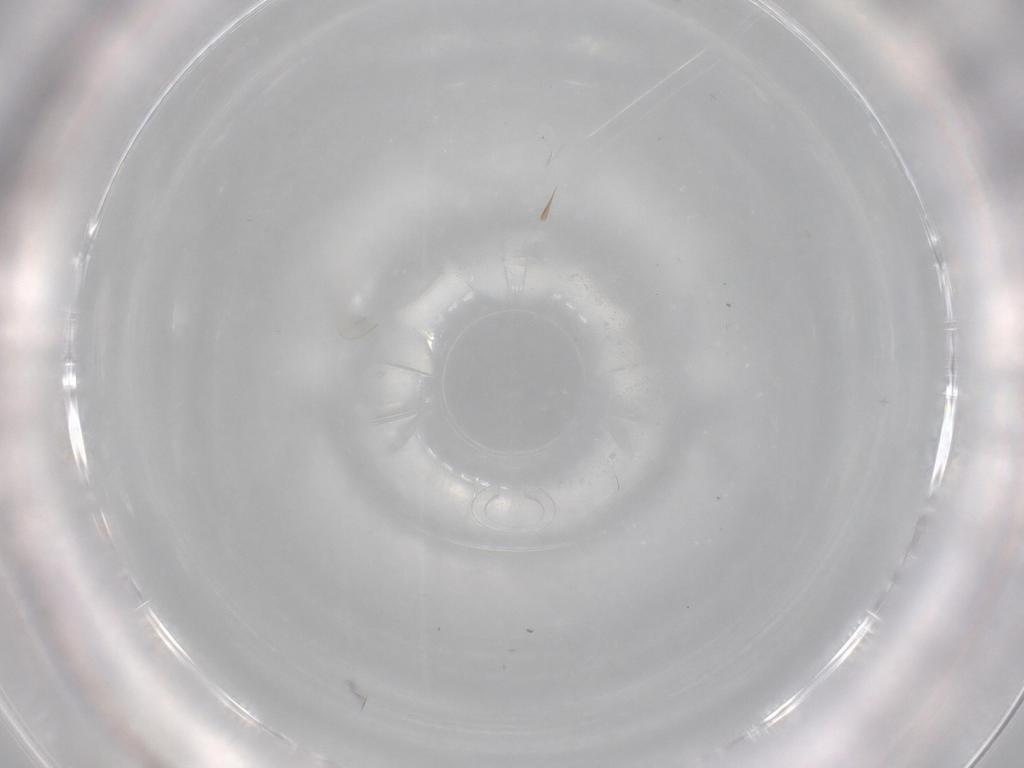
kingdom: Animalia
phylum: Arthropoda
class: Insecta
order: Diptera
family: Cecidomyiidae
